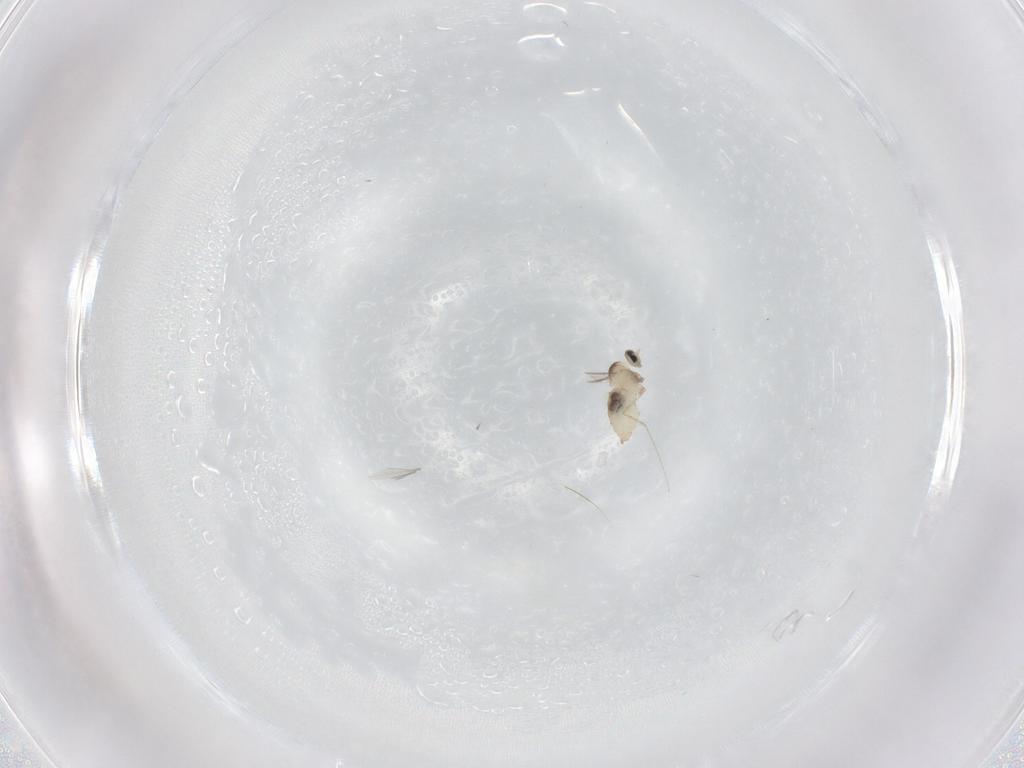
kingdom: Animalia
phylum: Arthropoda
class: Insecta
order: Diptera
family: Cecidomyiidae
